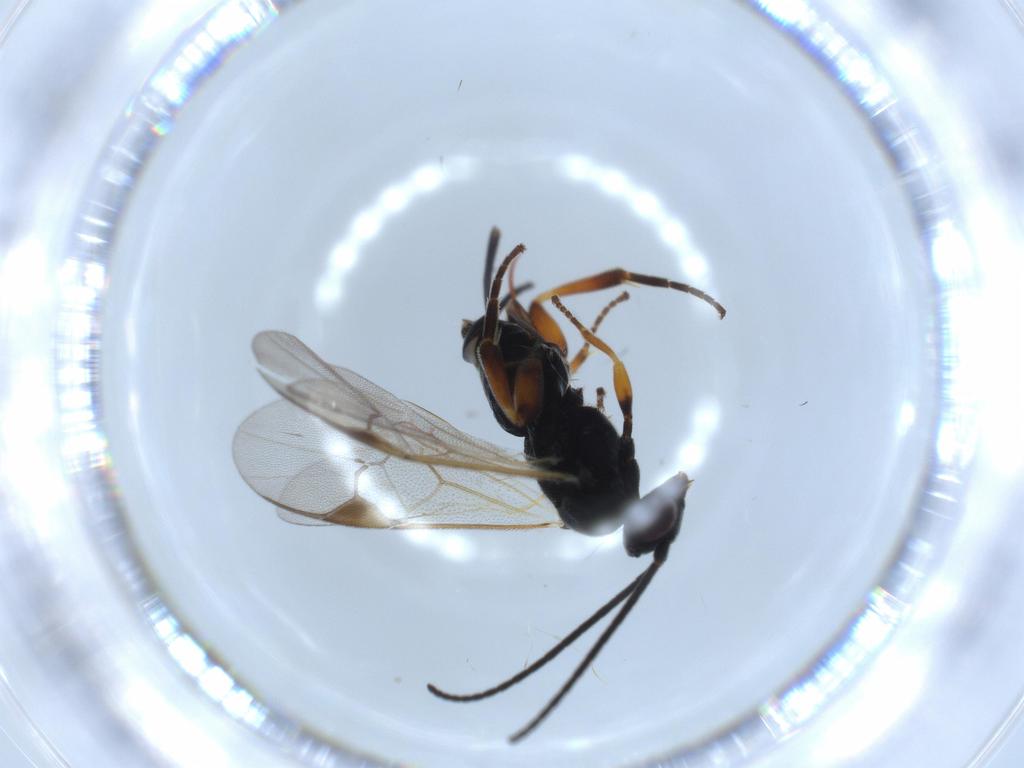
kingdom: Animalia
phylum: Arthropoda
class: Insecta
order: Hymenoptera
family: Braconidae
